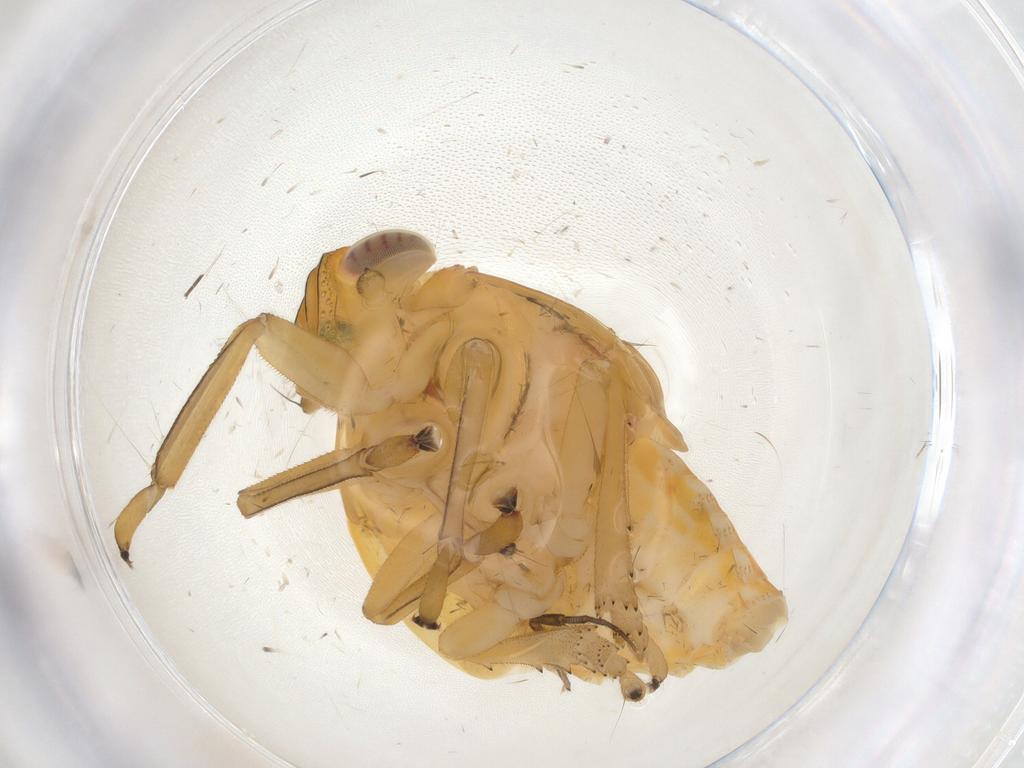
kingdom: Animalia
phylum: Arthropoda
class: Insecta
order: Hemiptera
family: Issidae
